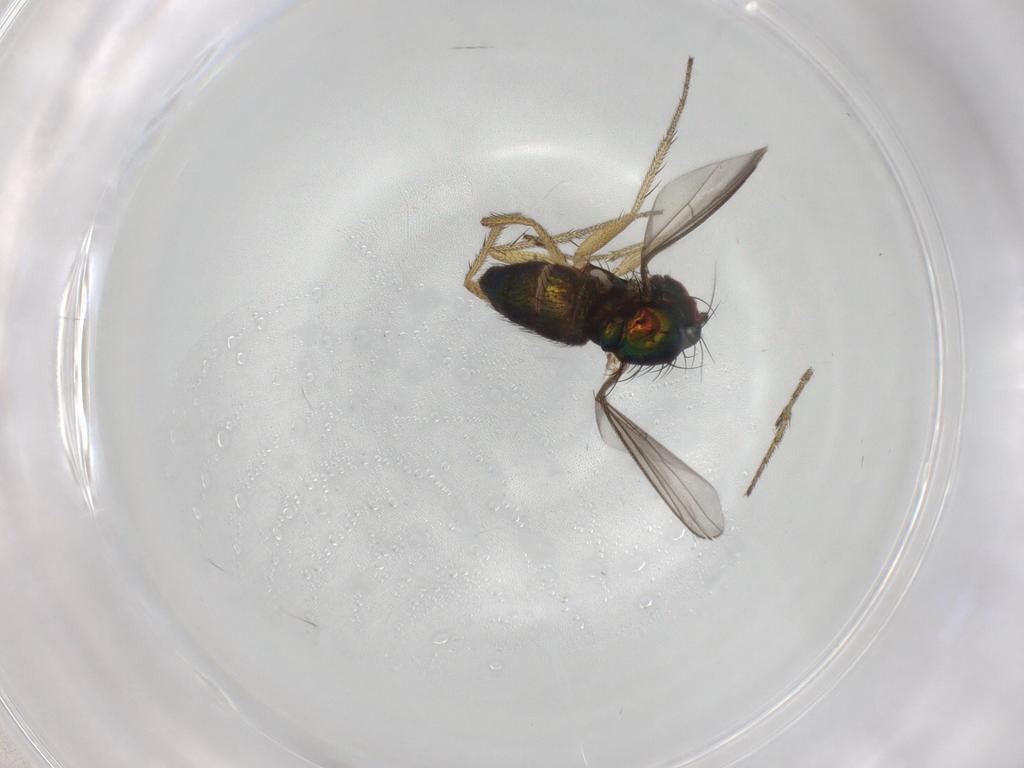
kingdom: Animalia
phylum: Arthropoda
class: Insecta
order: Diptera
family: Chironomidae
